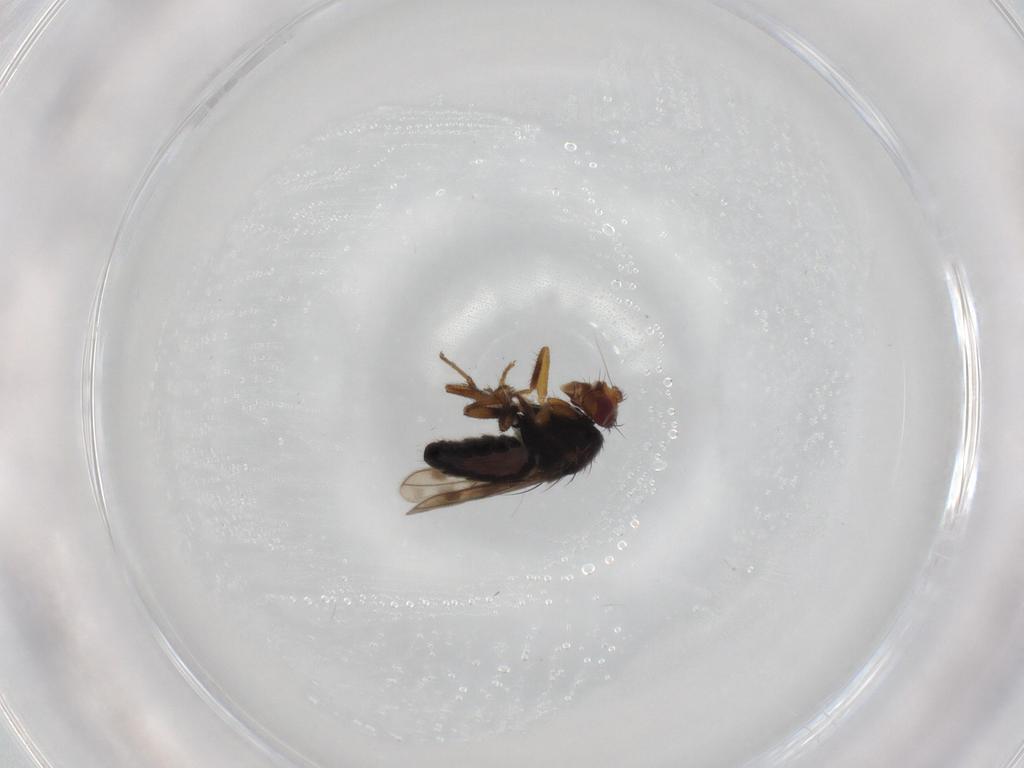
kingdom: Animalia
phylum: Arthropoda
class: Insecta
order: Diptera
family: Sphaeroceridae
